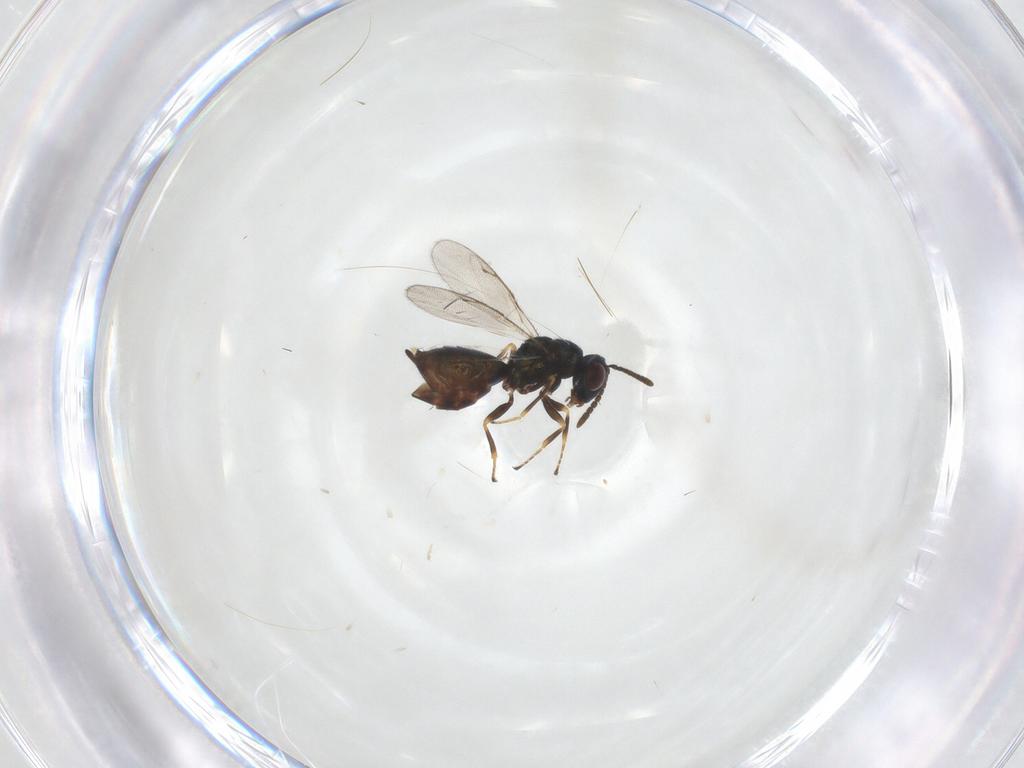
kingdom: Animalia
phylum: Arthropoda
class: Insecta
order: Hymenoptera
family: Pteromalidae
